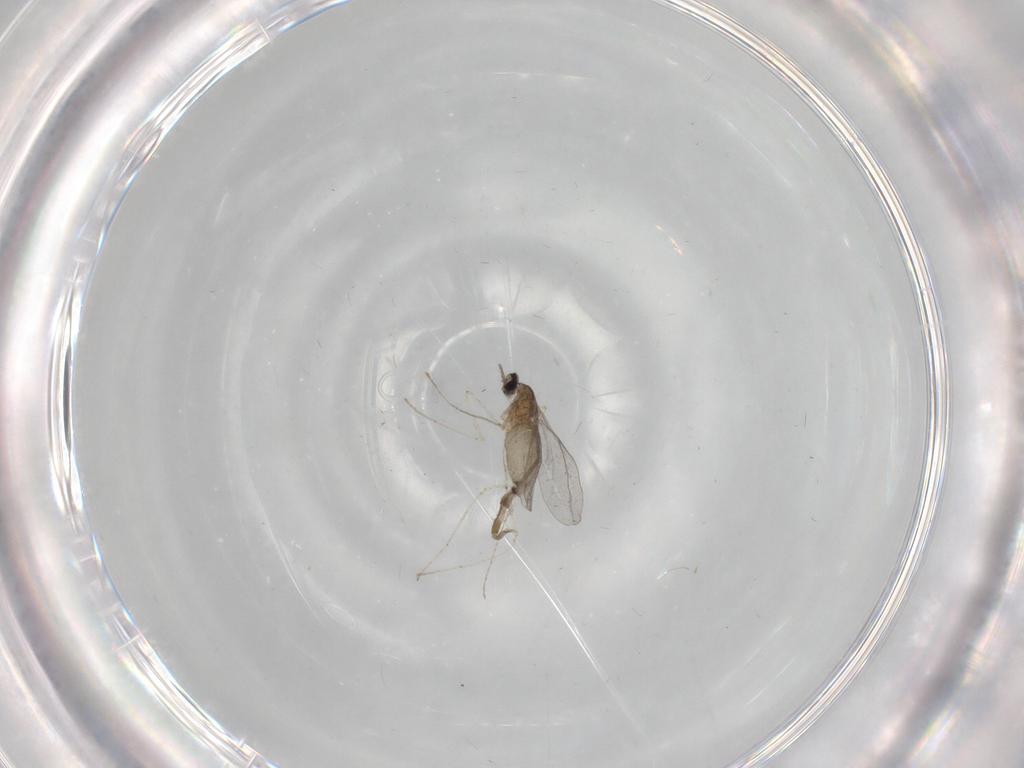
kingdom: Animalia
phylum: Arthropoda
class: Insecta
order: Diptera
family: Cecidomyiidae
